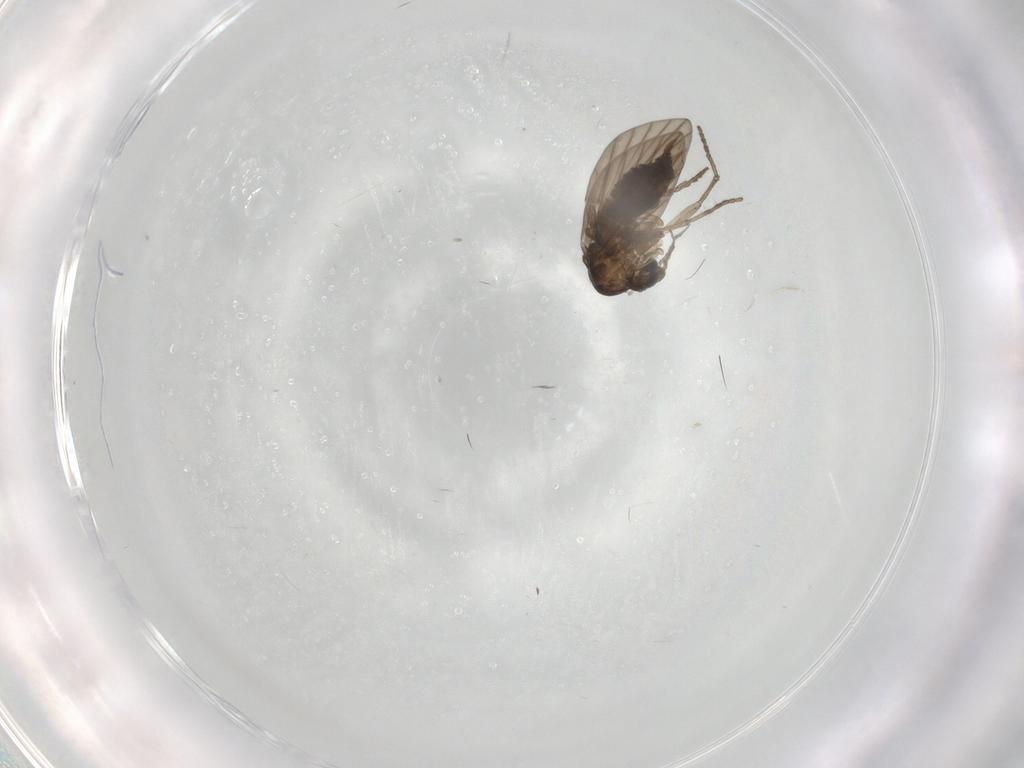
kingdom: Animalia
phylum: Arthropoda
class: Insecta
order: Diptera
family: Psychodidae
